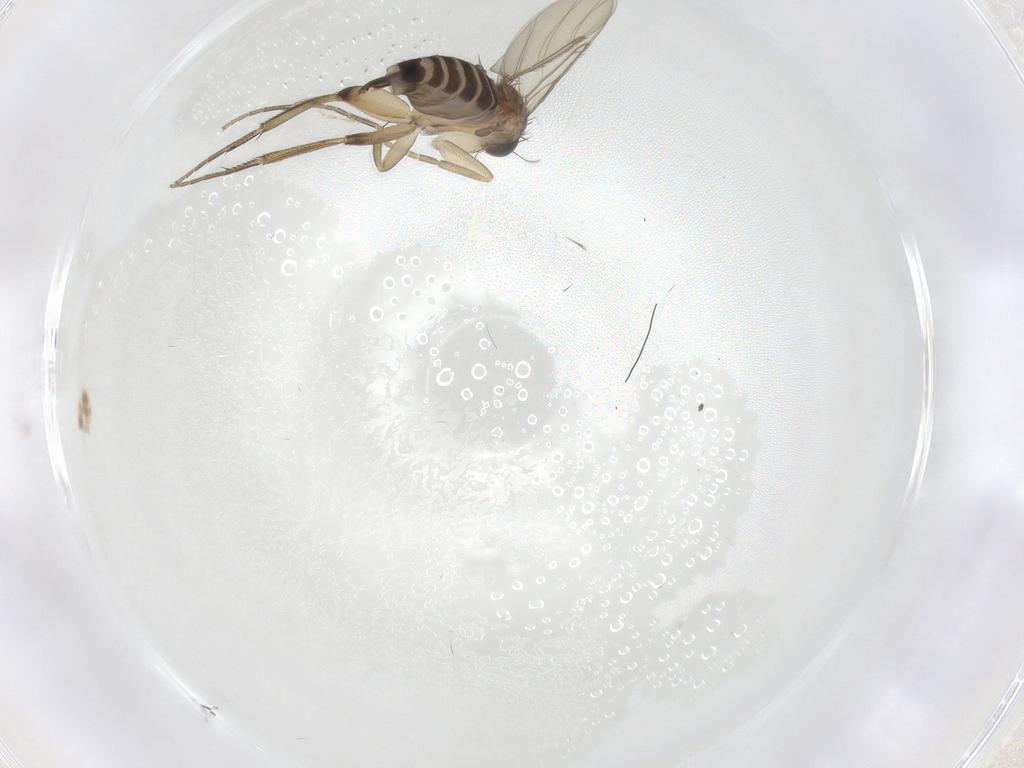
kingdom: Animalia
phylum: Arthropoda
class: Insecta
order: Diptera
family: Phoridae
